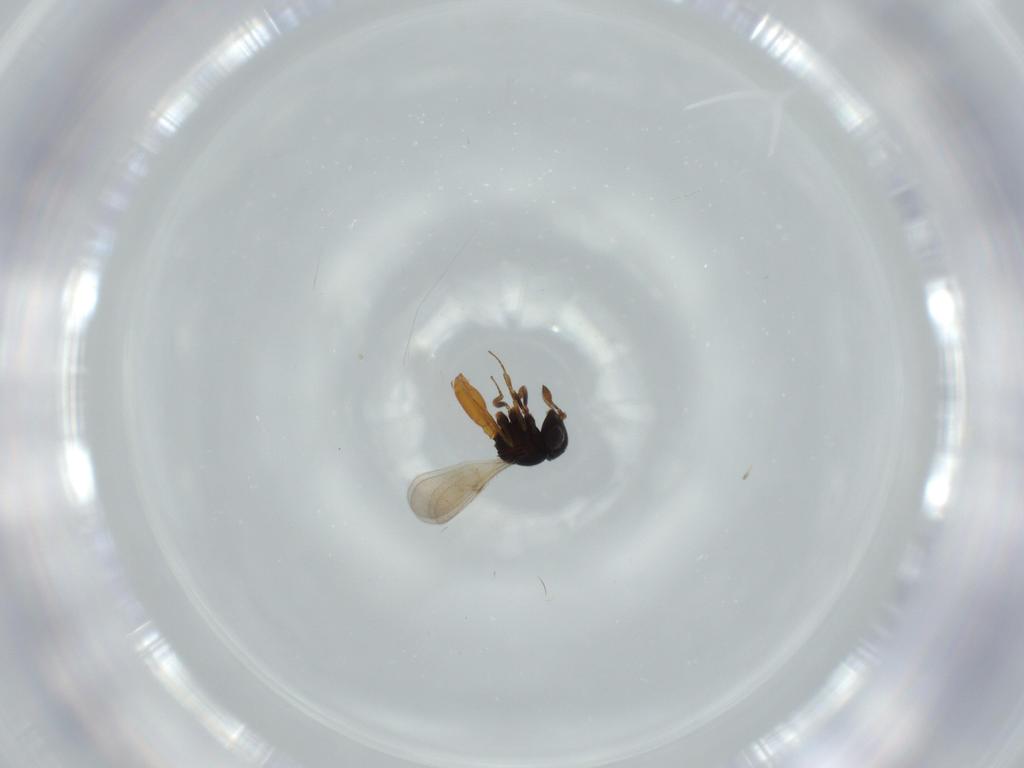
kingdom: Animalia
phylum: Arthropoda
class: Insecta
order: Hymenoptera
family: Scelionidae
